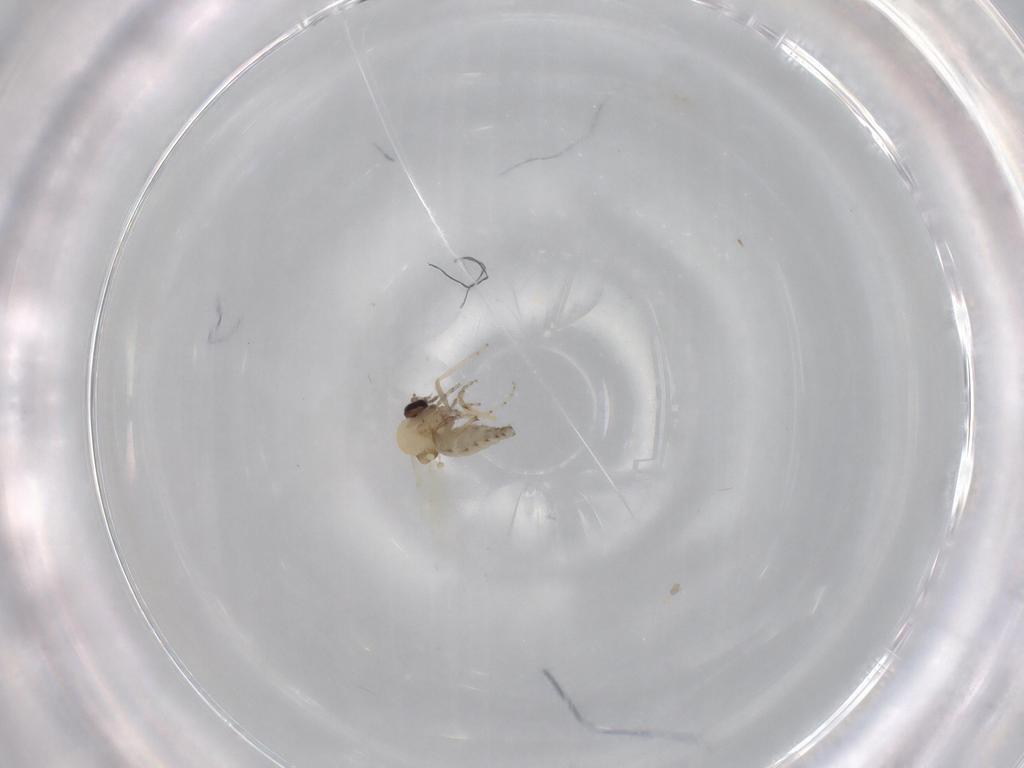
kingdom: Animalia
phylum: Arthropoda
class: Insecta
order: Diptera
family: Ceratopogonidae
